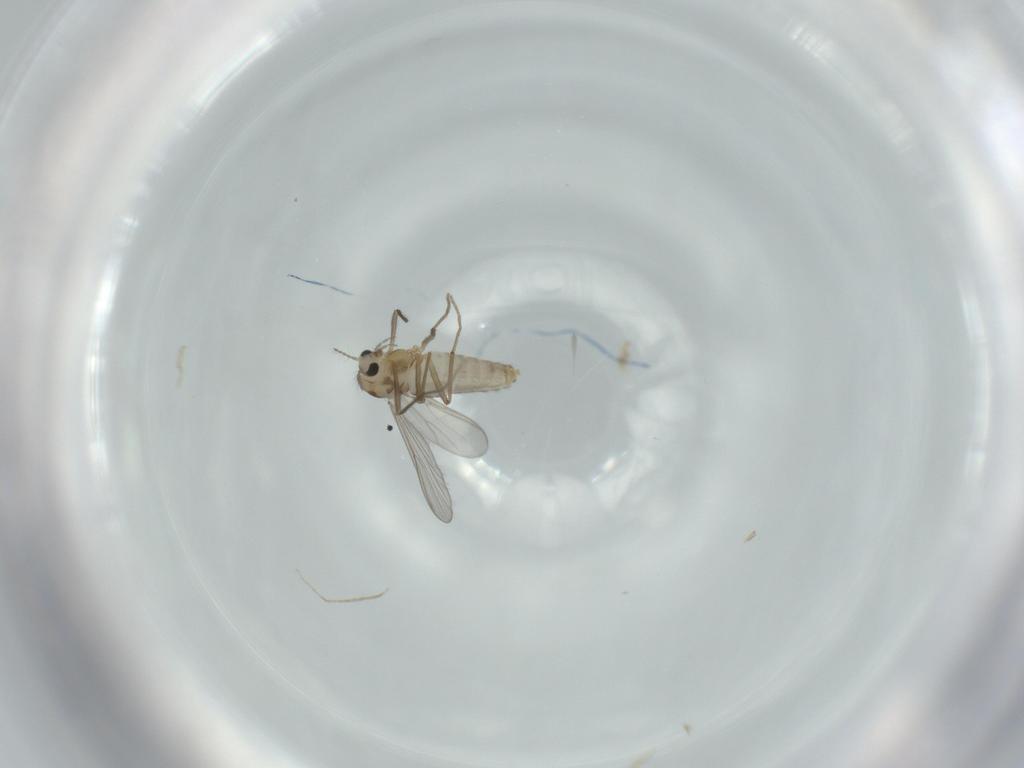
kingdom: Animalia
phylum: Arthropoda
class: Insecta
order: Diptera
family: Chironomidae
